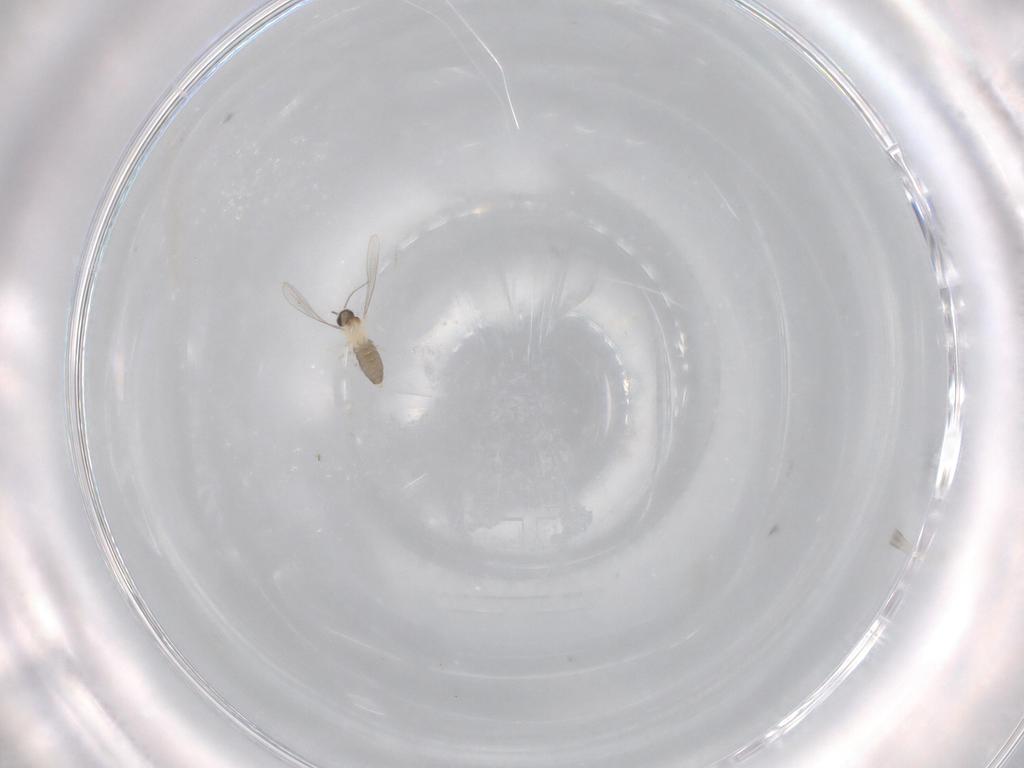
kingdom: Animalia
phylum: Arthropoda
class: Insecta
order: Diptera
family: Cecidomyiidae
